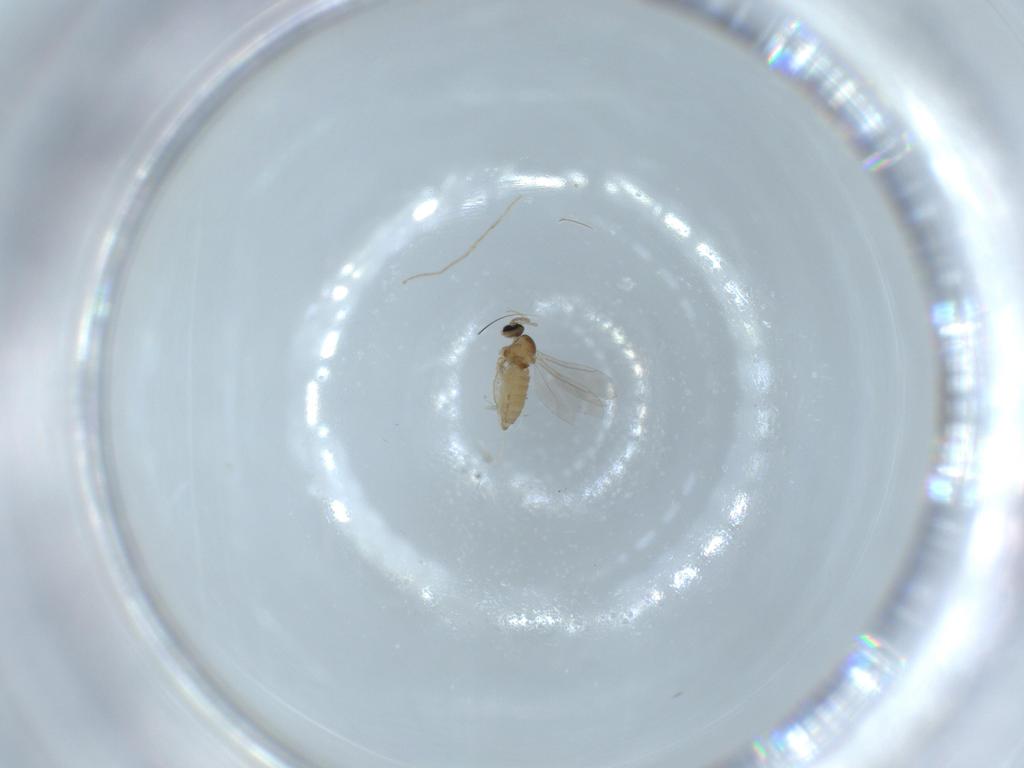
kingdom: Animalia
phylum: Arthropoda
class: Insecta
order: Diptera
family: Cecidomyiidae
